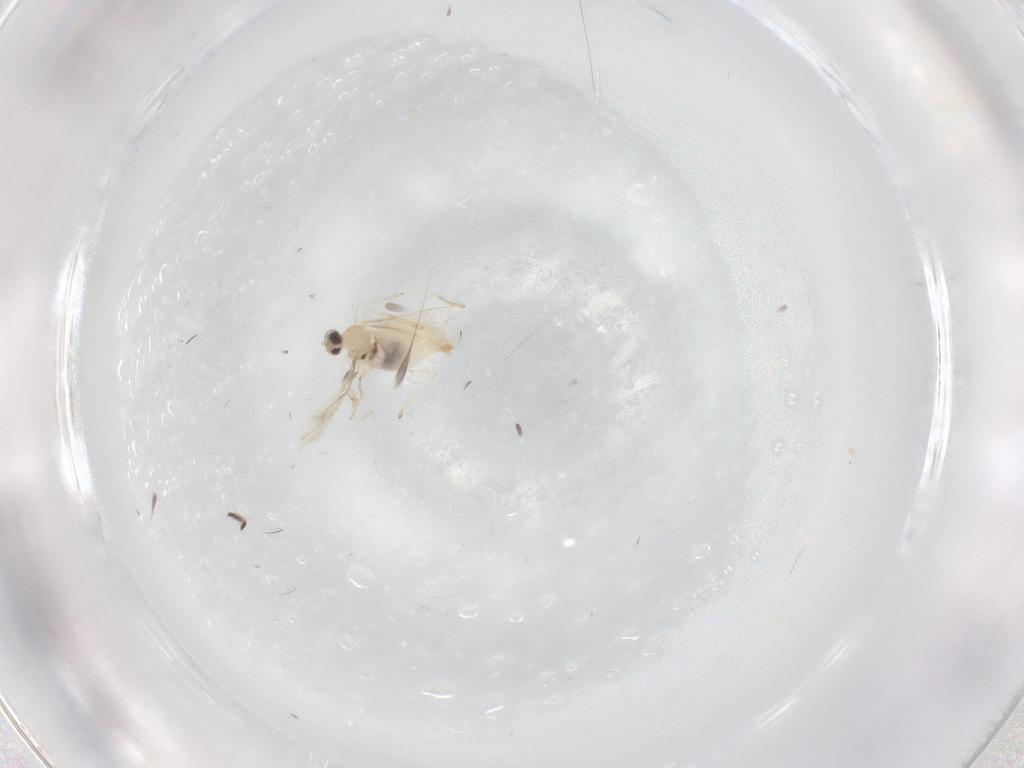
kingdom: Animalia
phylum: Arthropoda
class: Insecta
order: Diptera
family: Cecidomyiidae
